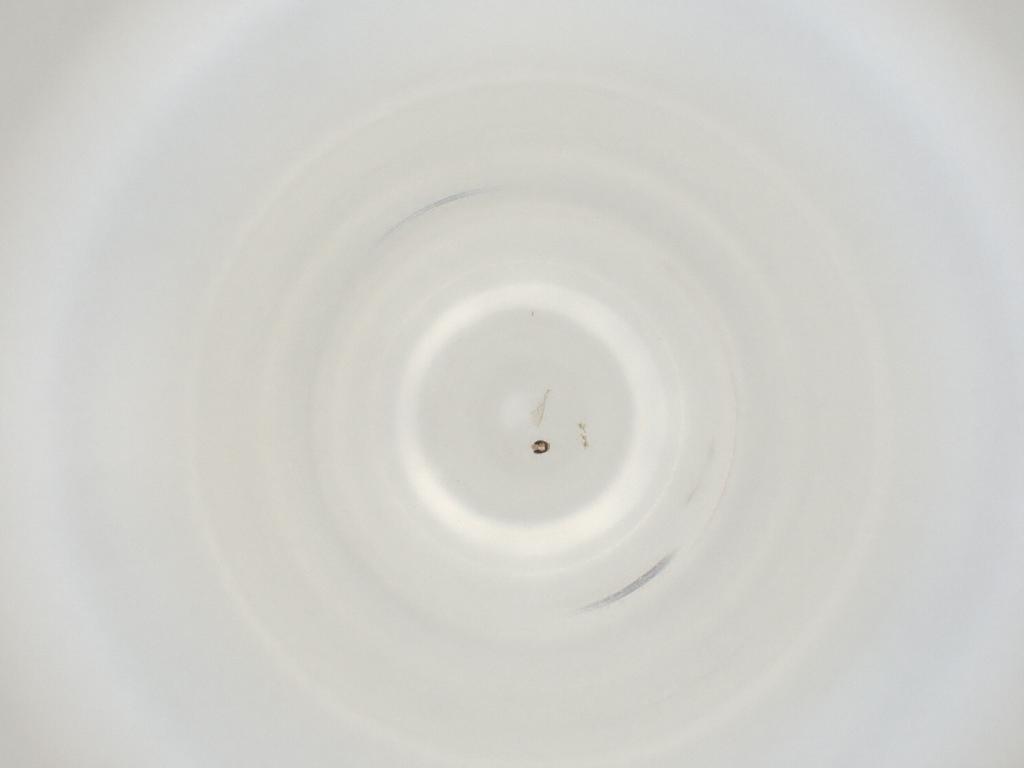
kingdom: Animalia
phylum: Arthropoda
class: Insecta
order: Diptera
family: Cecidomyiidae
